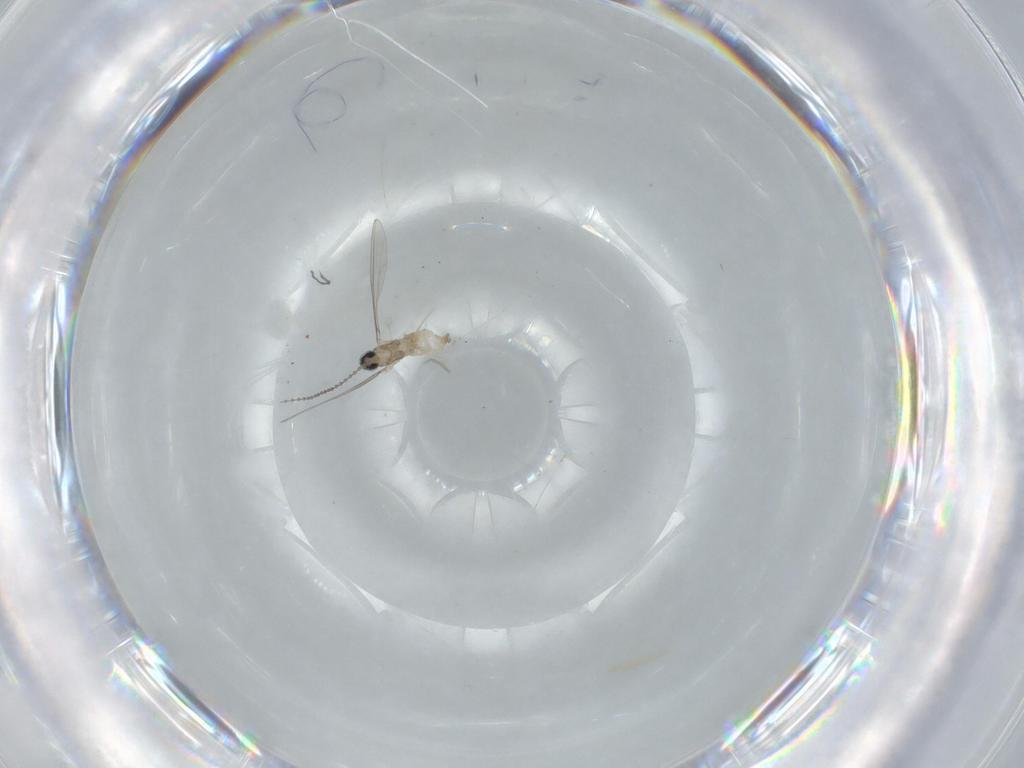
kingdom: Animalia
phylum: Arthropoda
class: Insecta
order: Diptera
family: Cecidomyiidae
